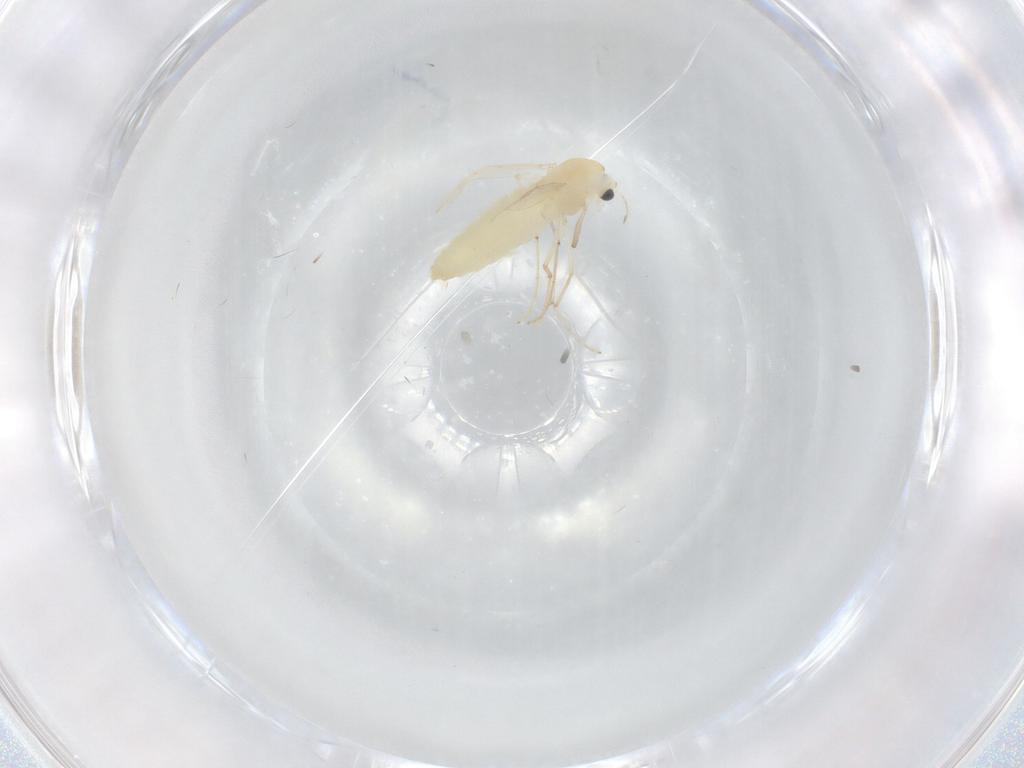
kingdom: Animalia
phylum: Arthropoda
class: Insecta
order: Diptera
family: Chironomidae
